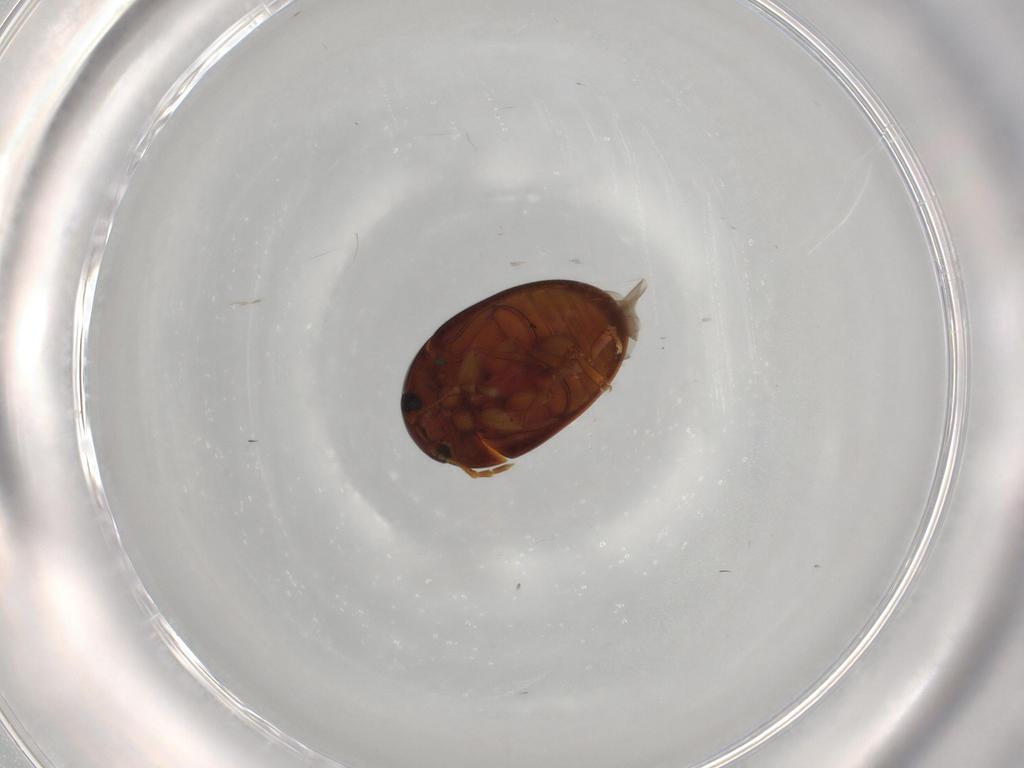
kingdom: Animalia
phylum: Arthropoda
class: Insecta
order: Coleoptera
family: Phalacridae
